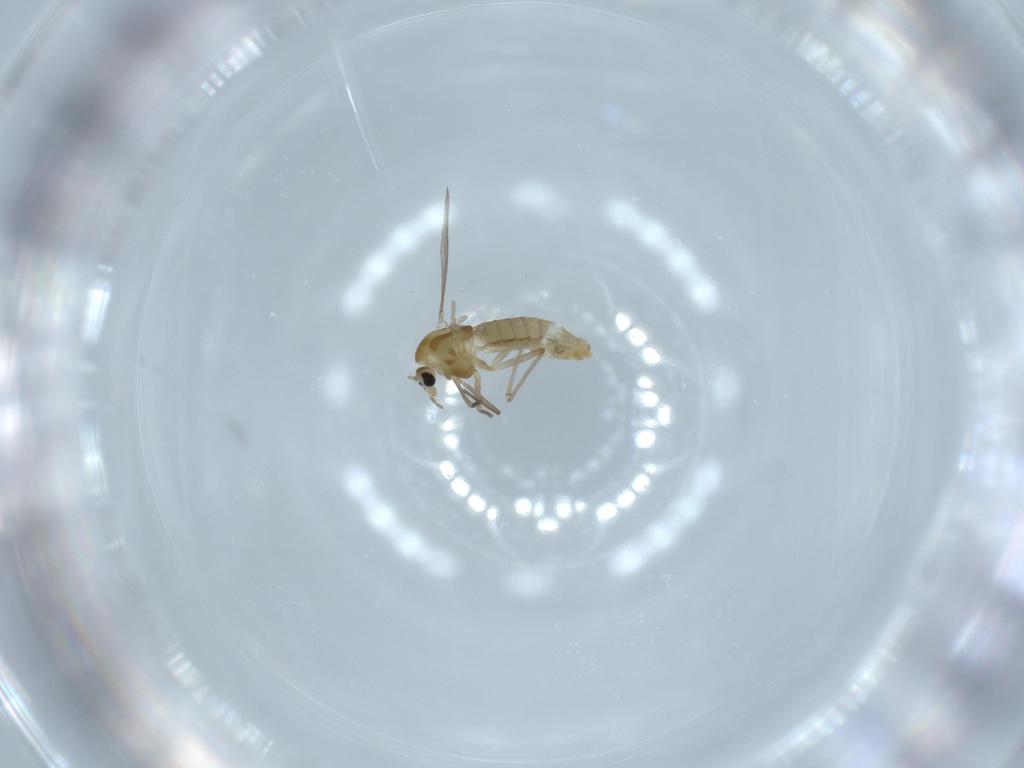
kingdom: Animalia
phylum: Arthropoda
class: Insecta
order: Diptera
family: Chironomidae
